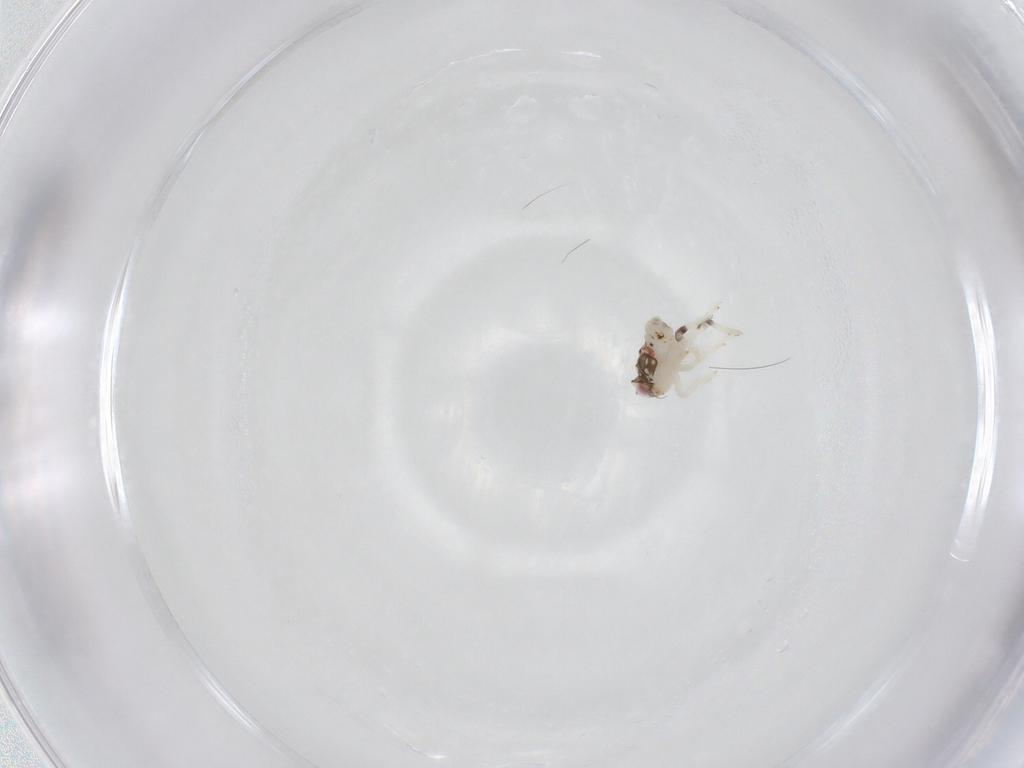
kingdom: Animalia
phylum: Arthropoda
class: Insecta
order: Hemiptera
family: Nogodinidae
